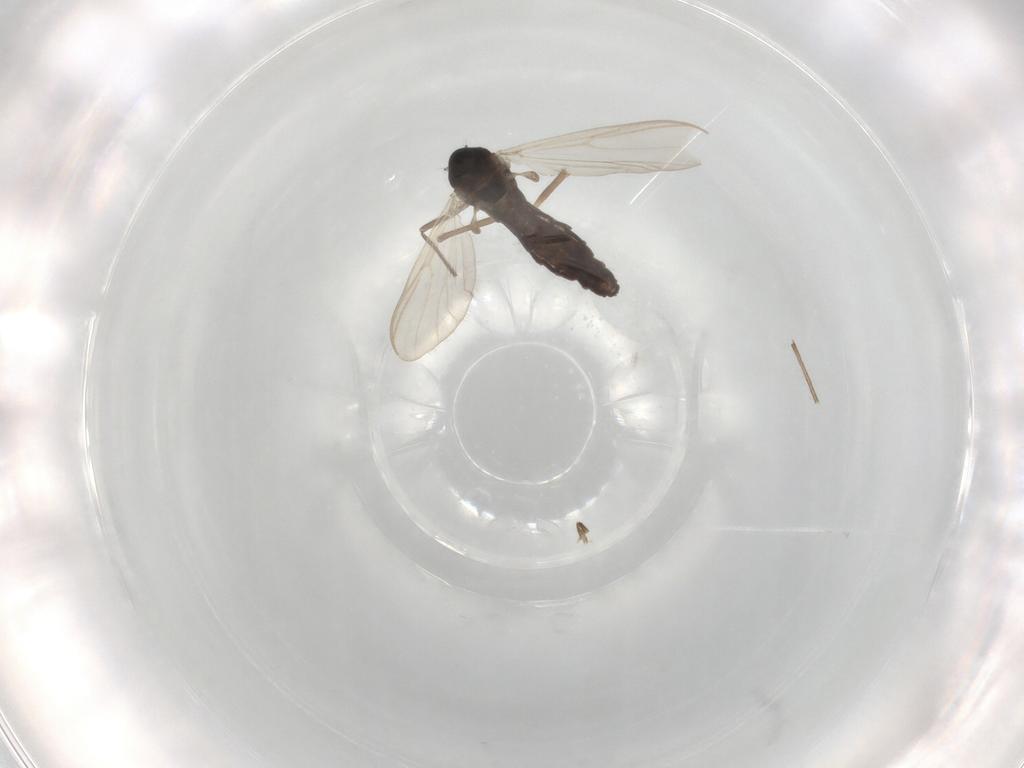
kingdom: Animalia
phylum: Arthropoda
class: Insecta
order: Diptera
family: Chironomidae
